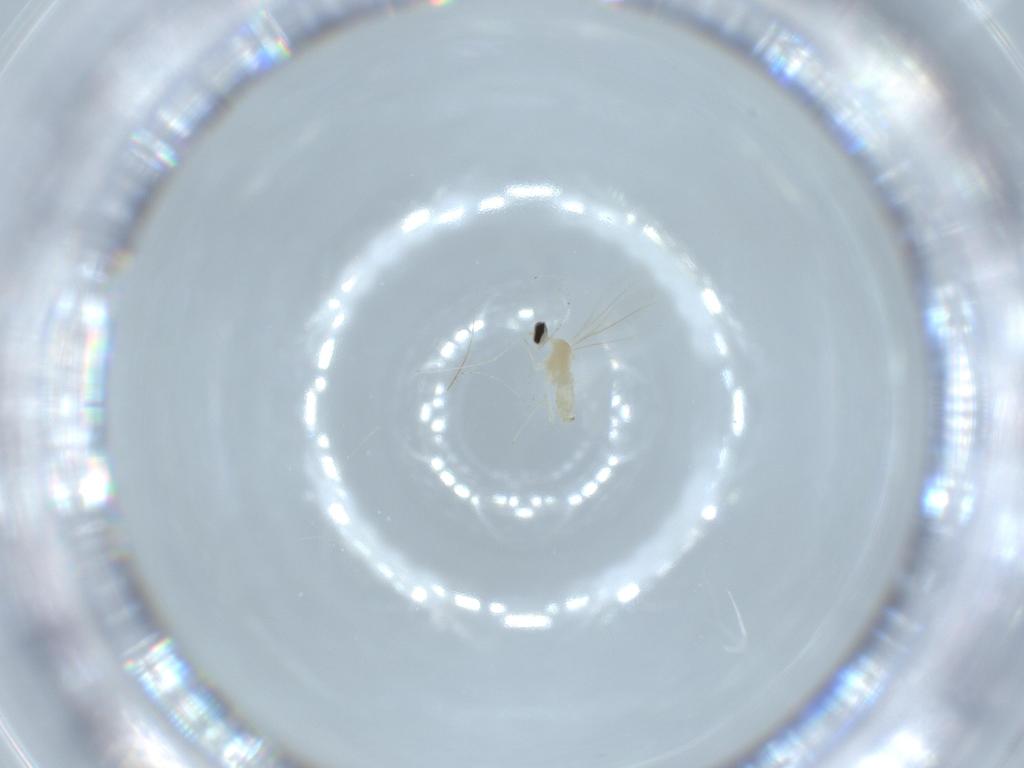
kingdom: Animalia
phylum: Arthropoda
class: Insecta
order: Diptera
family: Cecidomyiidae
